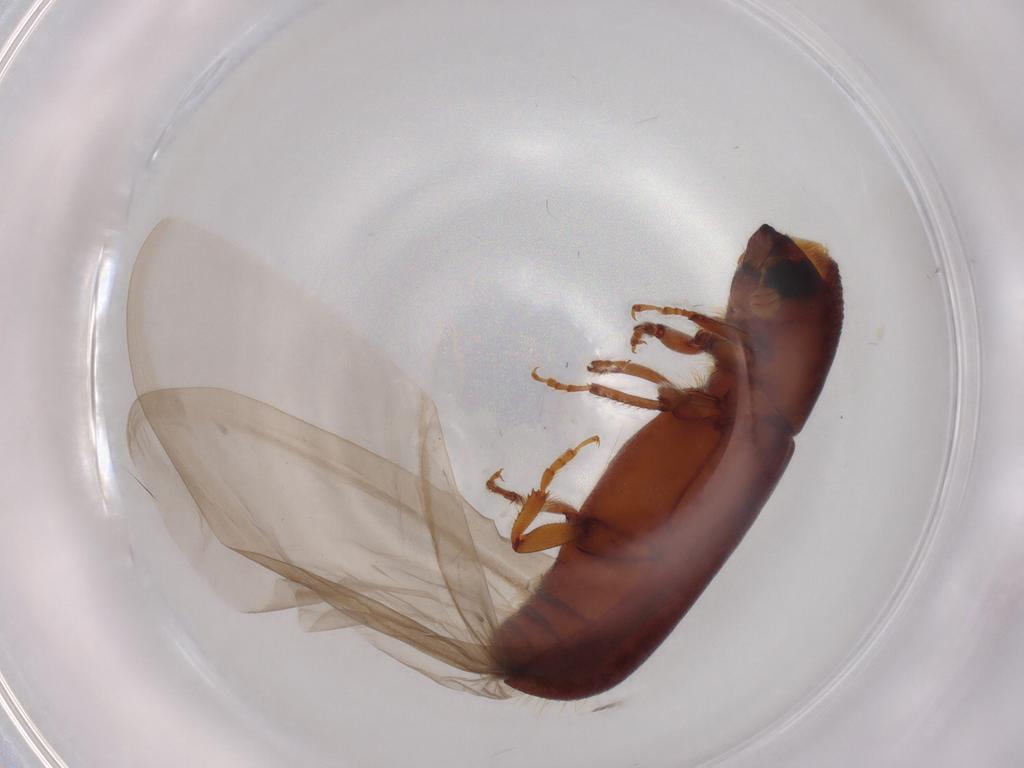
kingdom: Animalia
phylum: Arthropoda
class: Insecta
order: Coleoptera
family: Curculionidae
